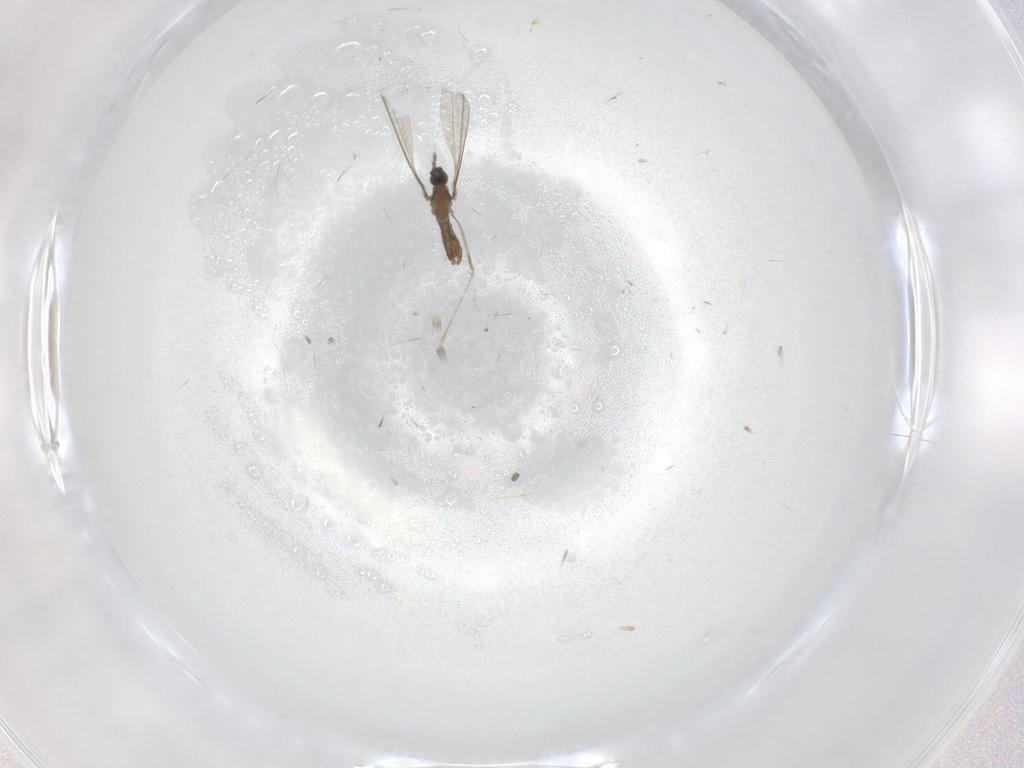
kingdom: Animalia
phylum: Arthropoda
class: Insecta
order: Diptera
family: Cecidomyiidae
